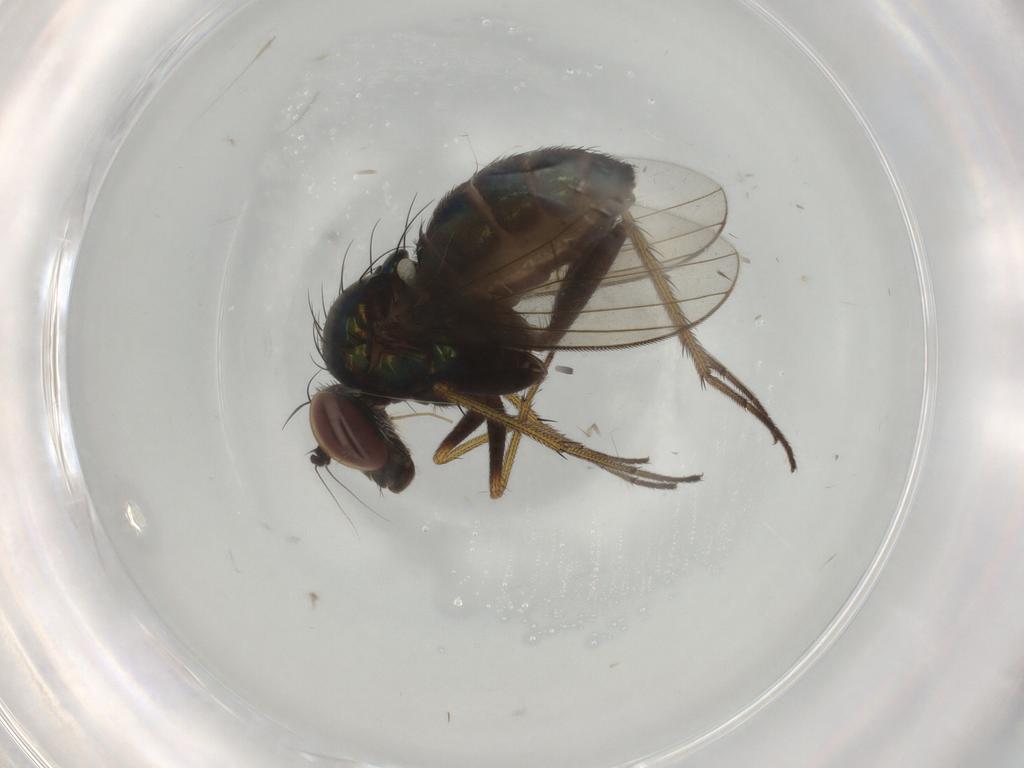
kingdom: Animalia
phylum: Arthropoda
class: Insecta
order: Diptera
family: Dolichopodidae
